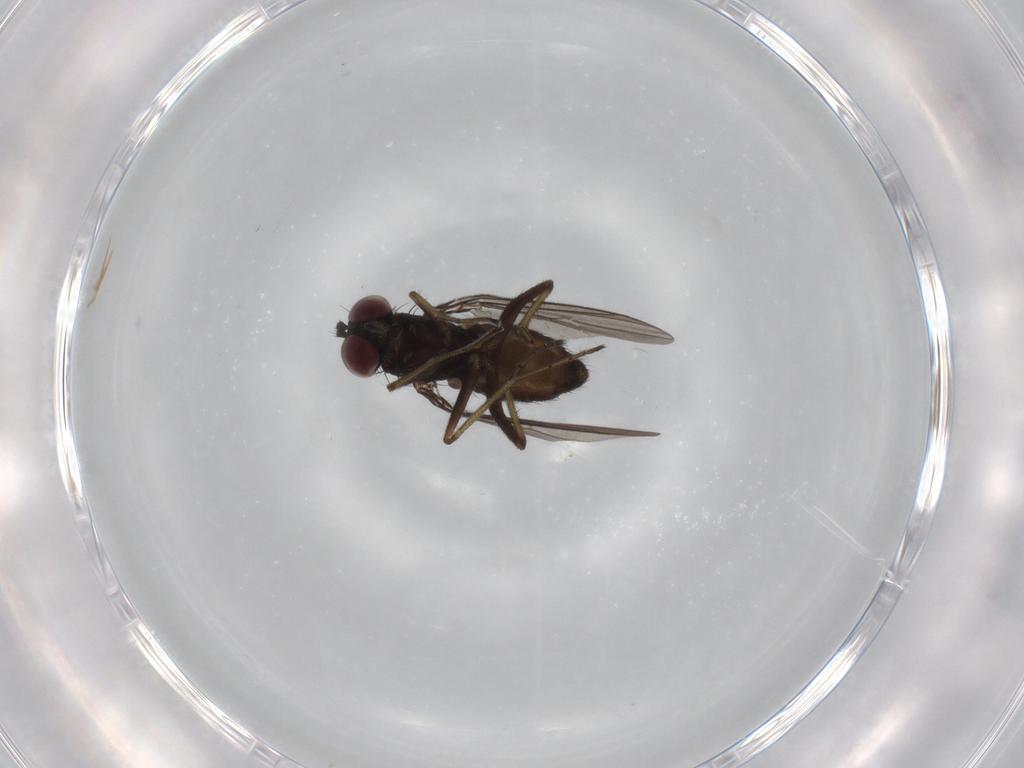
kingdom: Animalia
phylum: Arthropoda
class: Insecta
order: Diptera
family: Dolichopodidae
